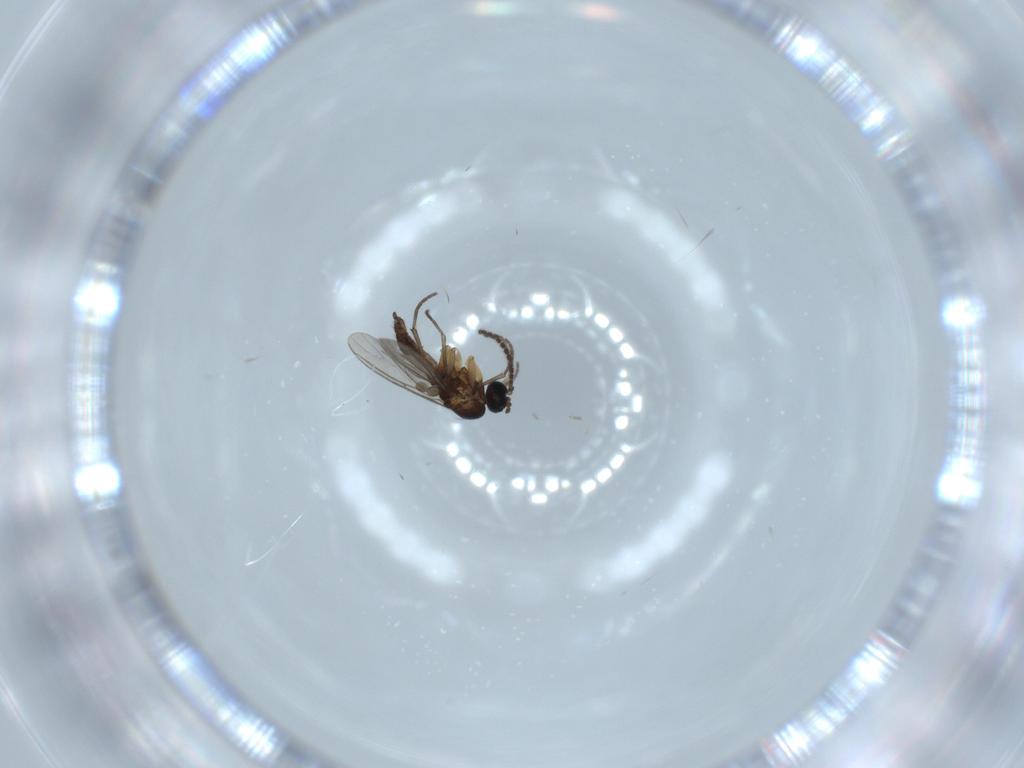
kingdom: Animalia
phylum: Arthropoda
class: Insecta
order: Diptera
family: Sciaridae
